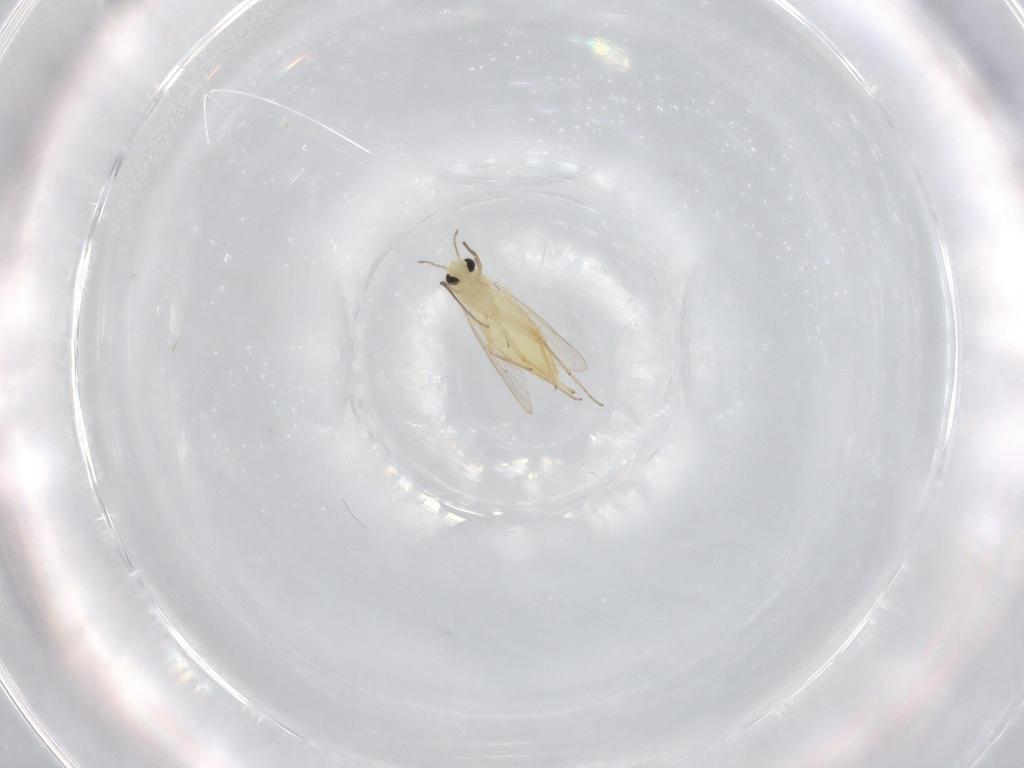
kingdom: Animalia
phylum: Arthropoda
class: Insecta
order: Diptera
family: Chironomidae
